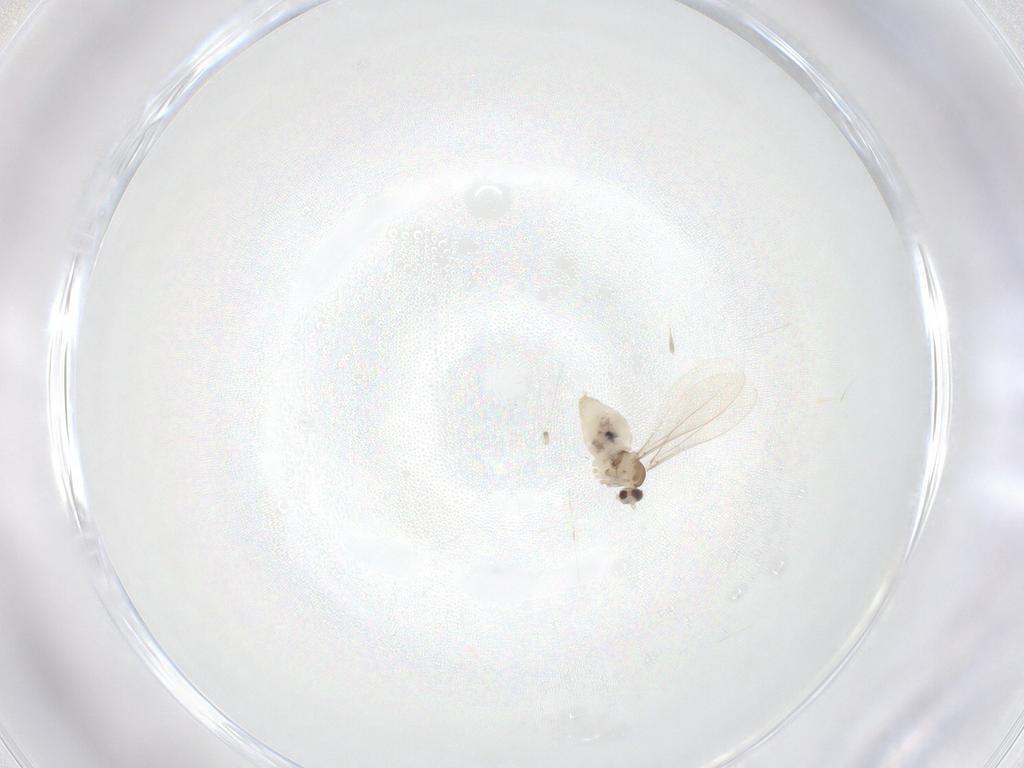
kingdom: Animalia
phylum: Arthropoda
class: Insecta
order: Diptera
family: Cecidomyiidae
